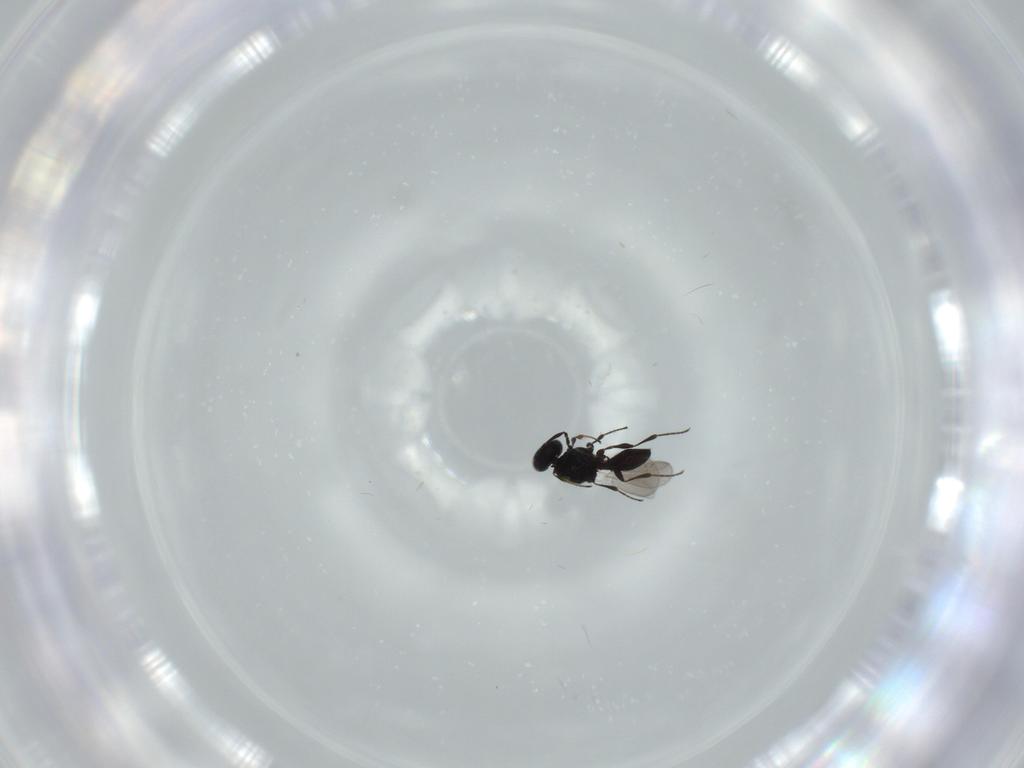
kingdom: Animalia
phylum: Arthropoda
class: Insecta
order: Diptera
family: Mythicomyiidae
